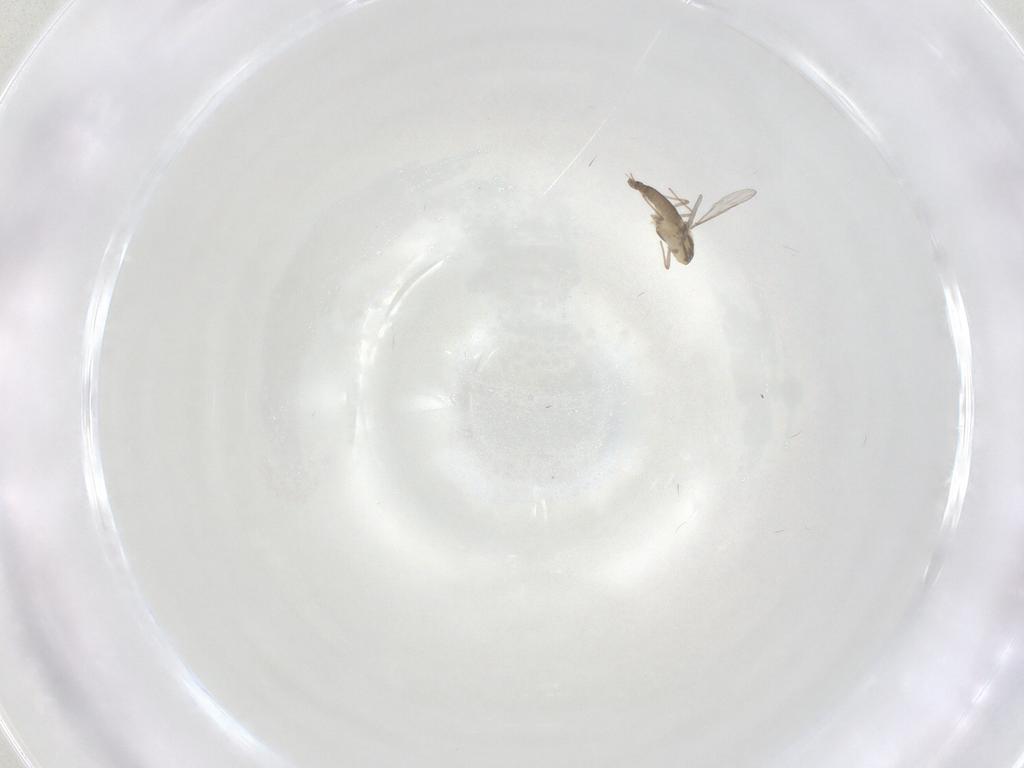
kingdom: Animalia
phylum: Arthropoda
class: Insecta
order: Diptera
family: Chironomidae
